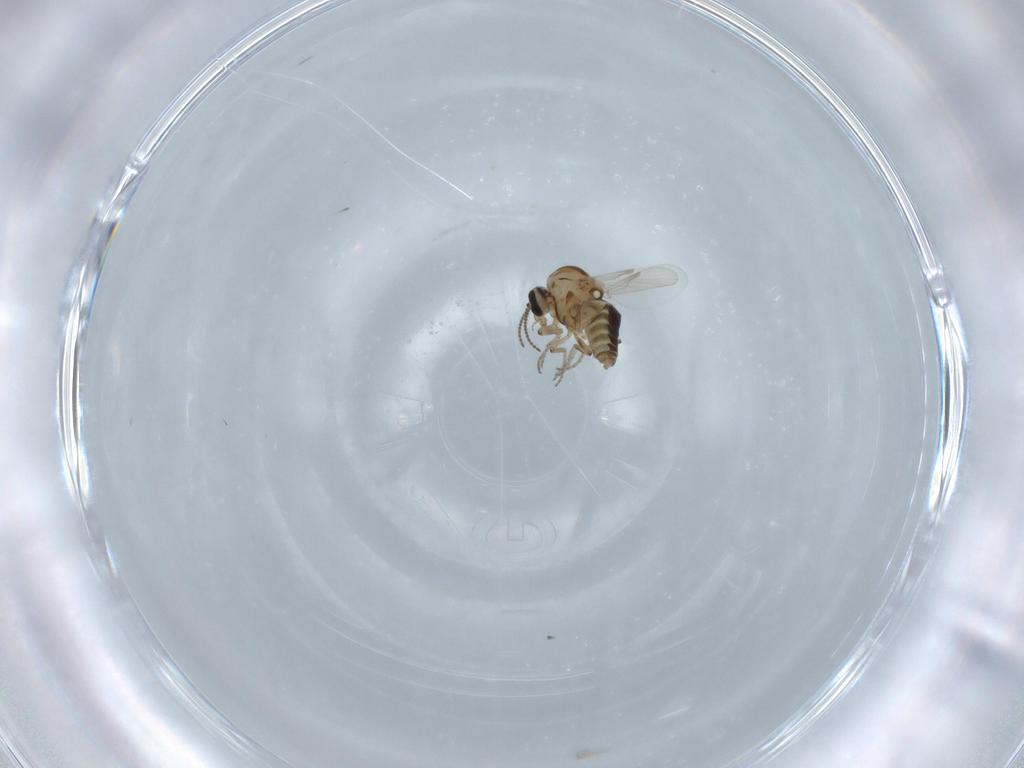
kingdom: Animalia
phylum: Arthropoda
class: Insecta
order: Diptera
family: Ceratopogonidae
